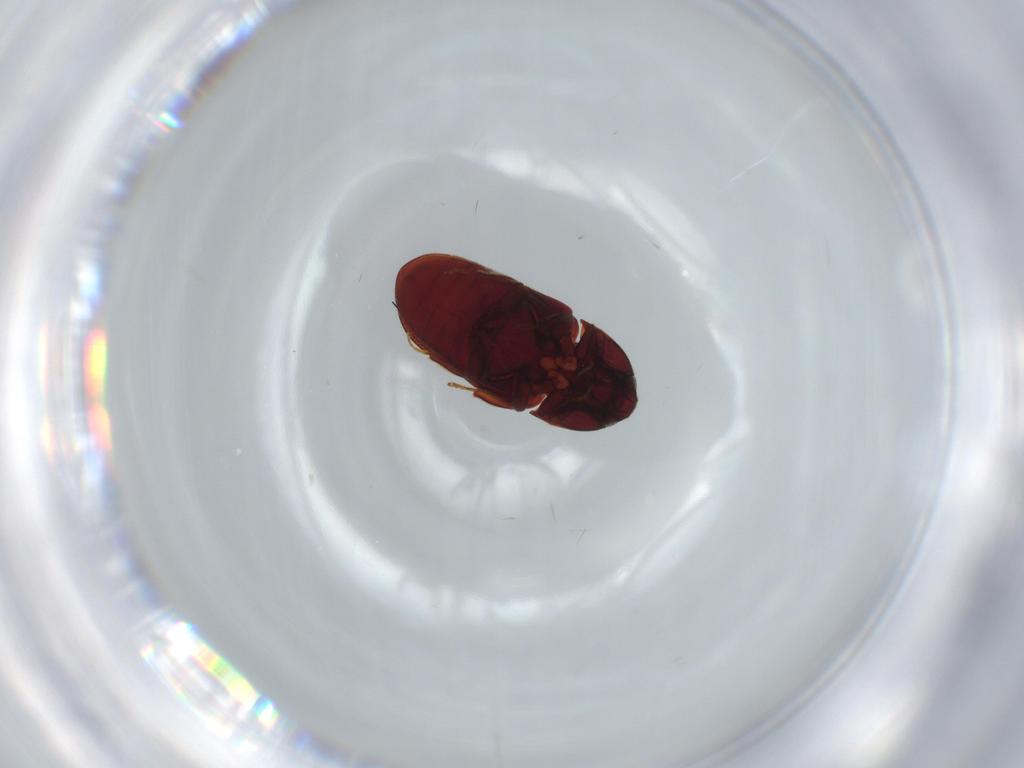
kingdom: Animalia
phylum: Arthropoda
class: Insecta
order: Coleoptera
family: Throscidae
